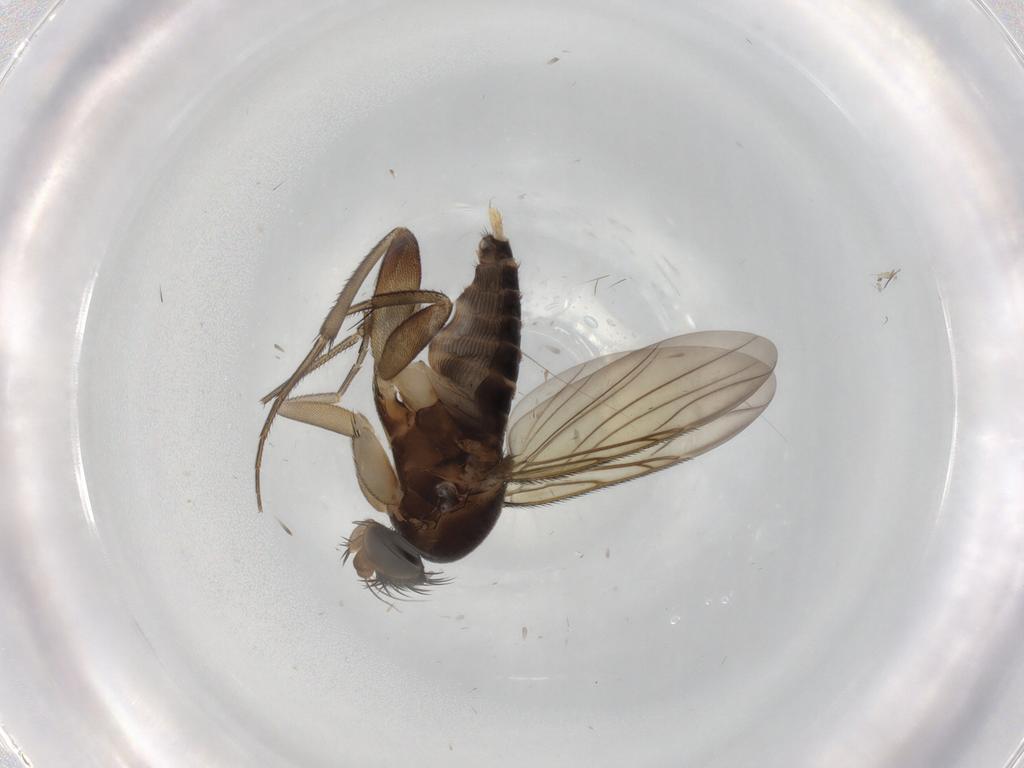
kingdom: Animalia
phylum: Arthropoda
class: Insecta
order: Diptera
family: Phoridae
